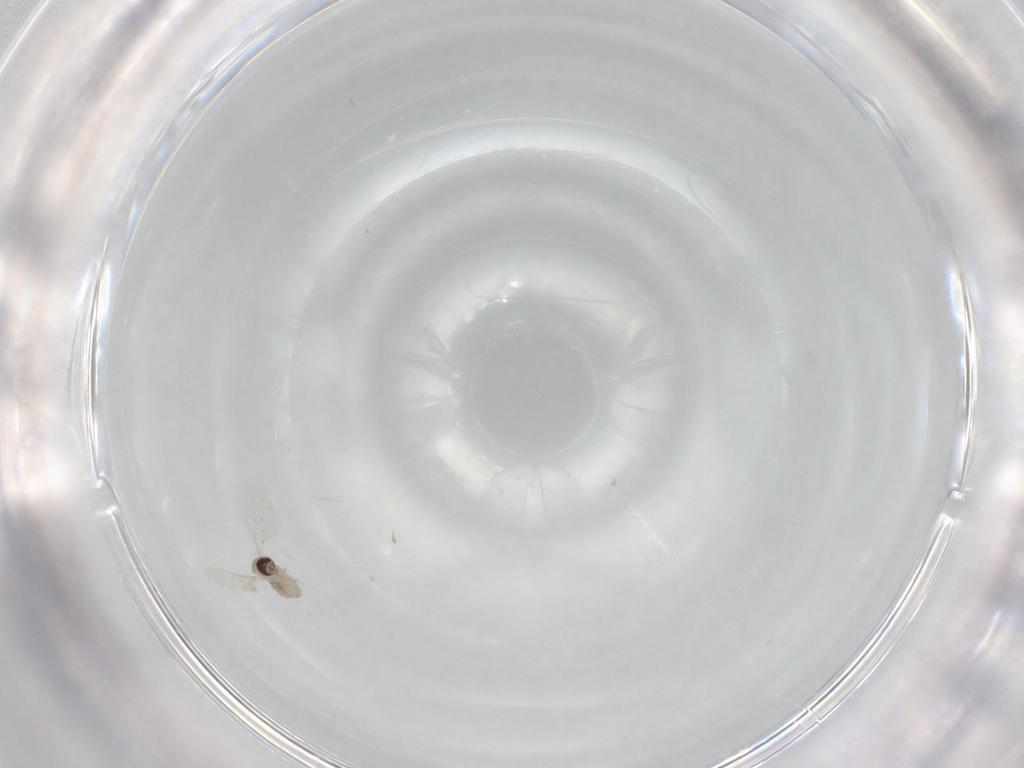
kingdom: Animalia
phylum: Arthropoda
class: Insecta
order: Diptera
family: Cecidomyiidae
